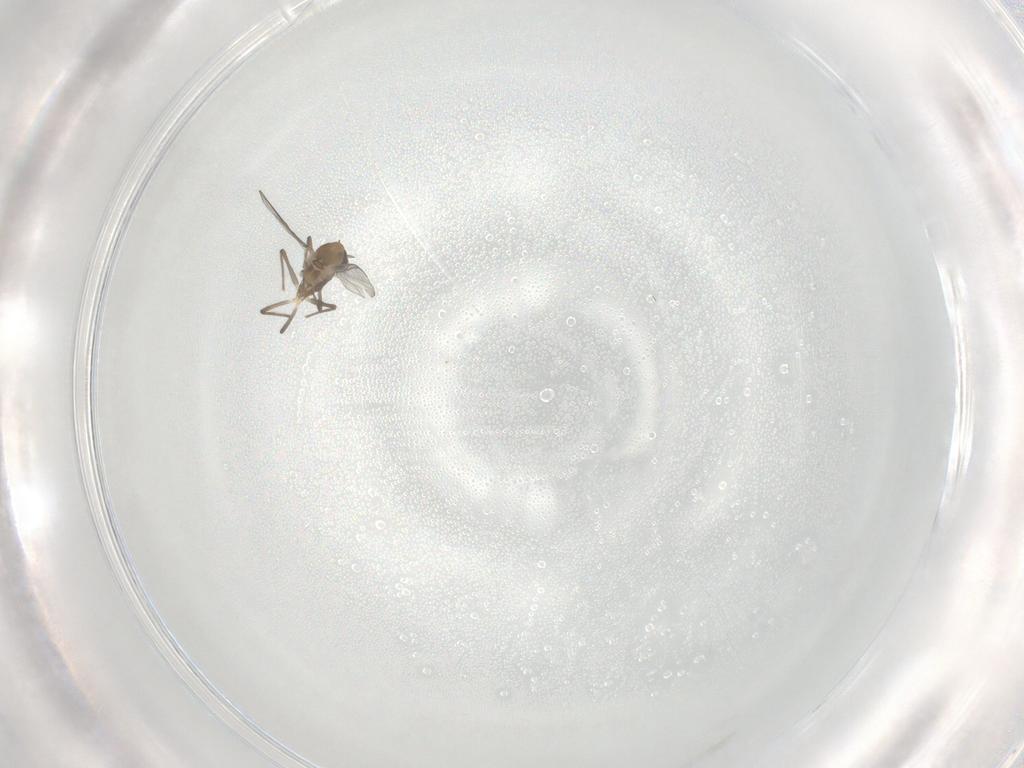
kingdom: Animalia
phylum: Arthropoda
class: Insecta
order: Diptera
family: Chironomidae
